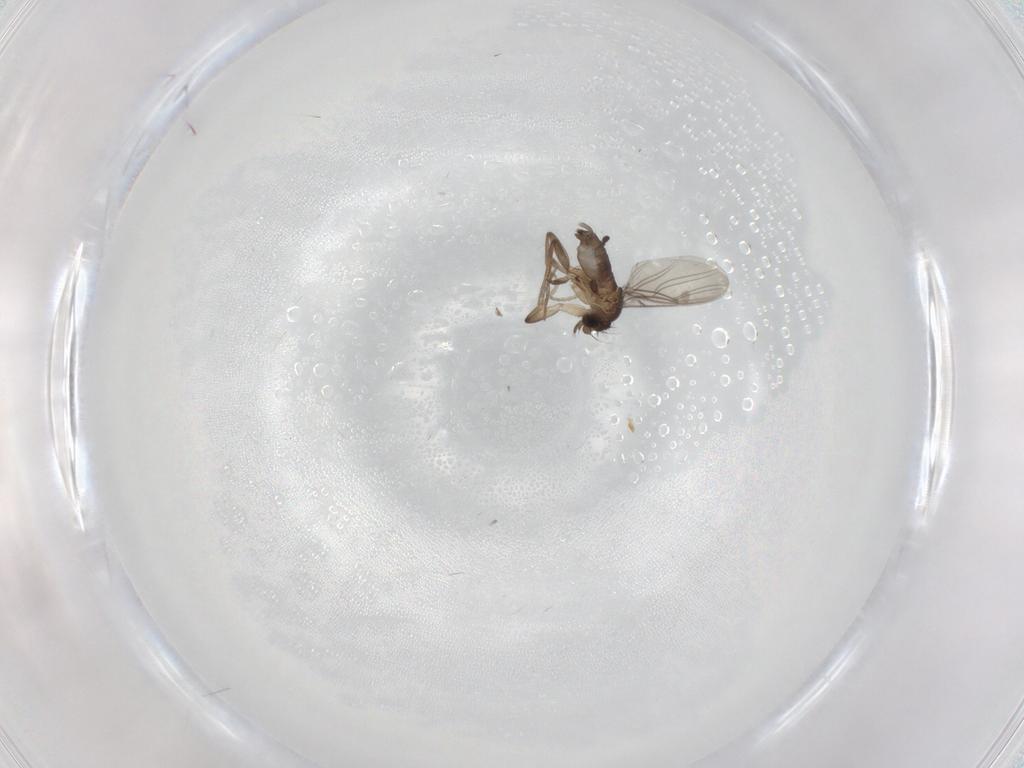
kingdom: Animalia
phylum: Arthropoda
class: Insecta
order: Diptera
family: Phoridae
